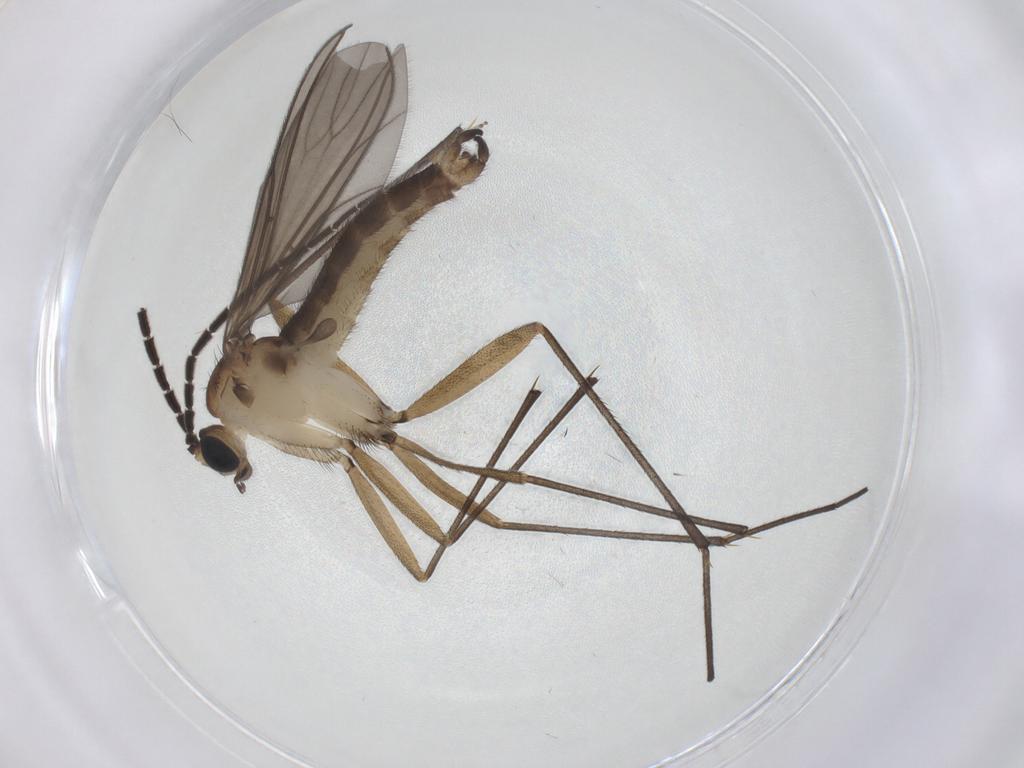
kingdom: Animalia
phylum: Arthropoda
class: Insecta
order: Diptera
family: Sciaridae
